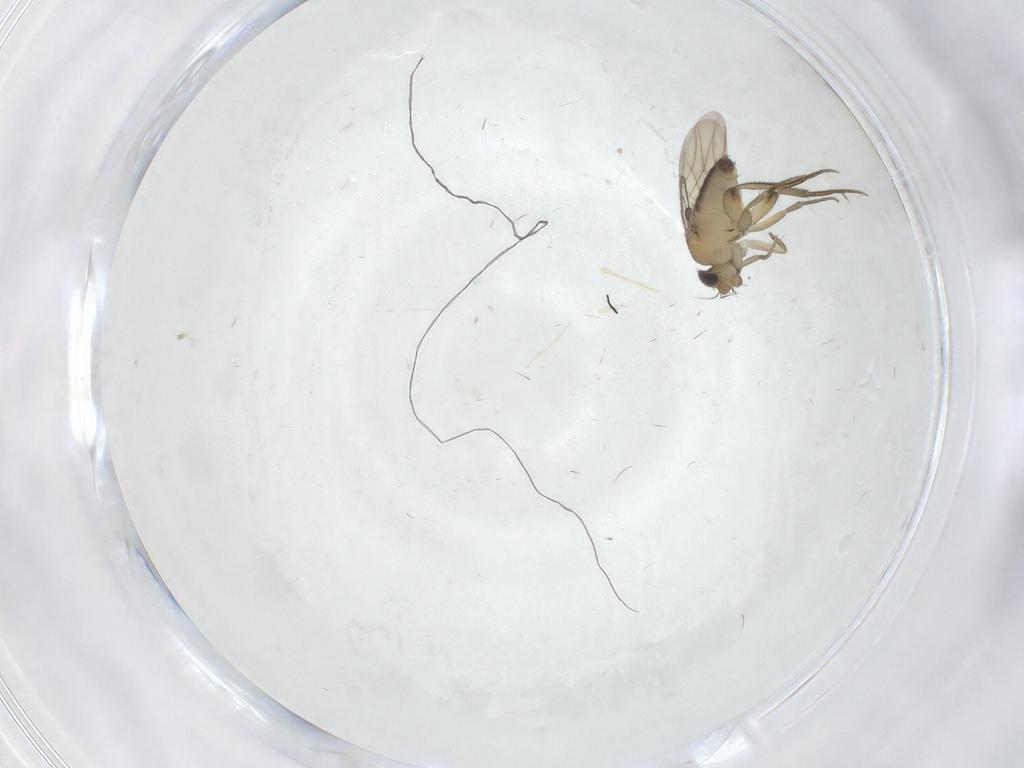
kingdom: Animalia
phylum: Arthropoda
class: Insecta
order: Diptera
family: Phoridae
